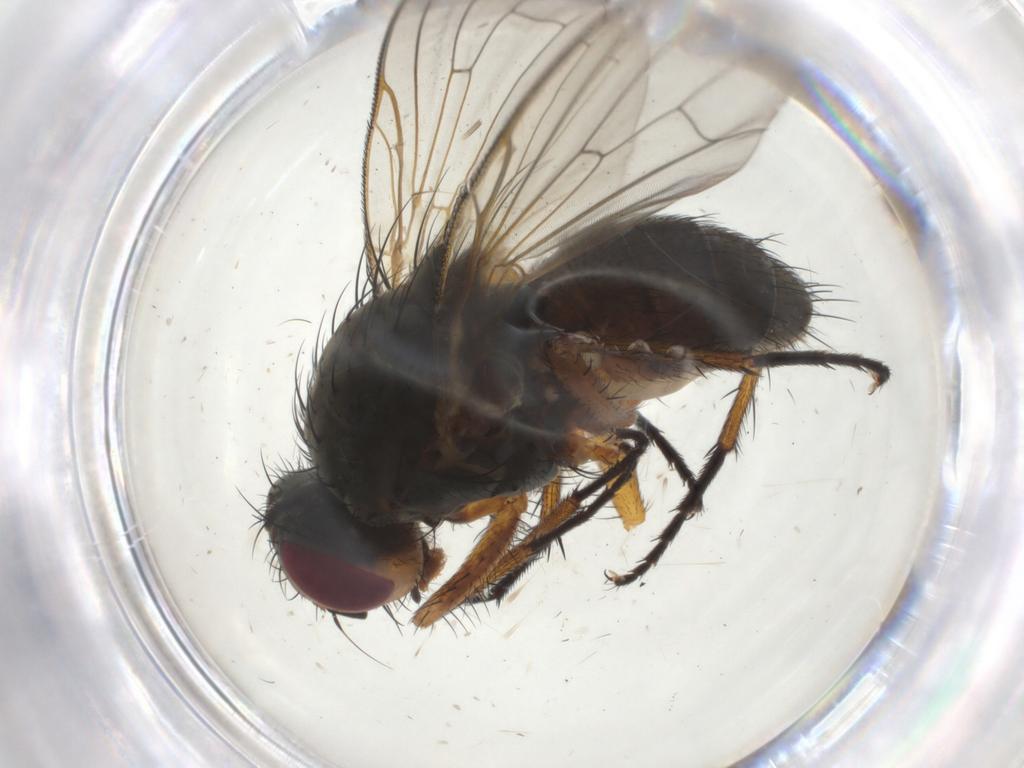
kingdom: Animalia
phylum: Arthropoda
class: Insecta
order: Diptera
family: Anthomyiidae
